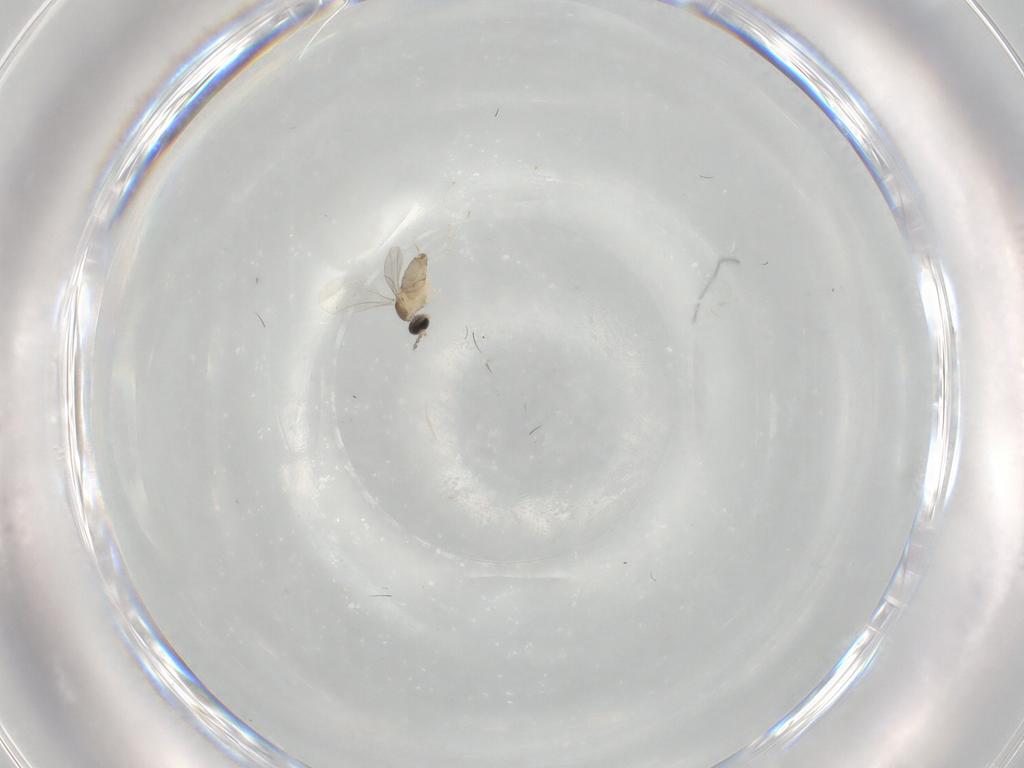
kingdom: Animalia
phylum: Arthropoda
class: Insecta
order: Diptera
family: Cecidomyiidae
